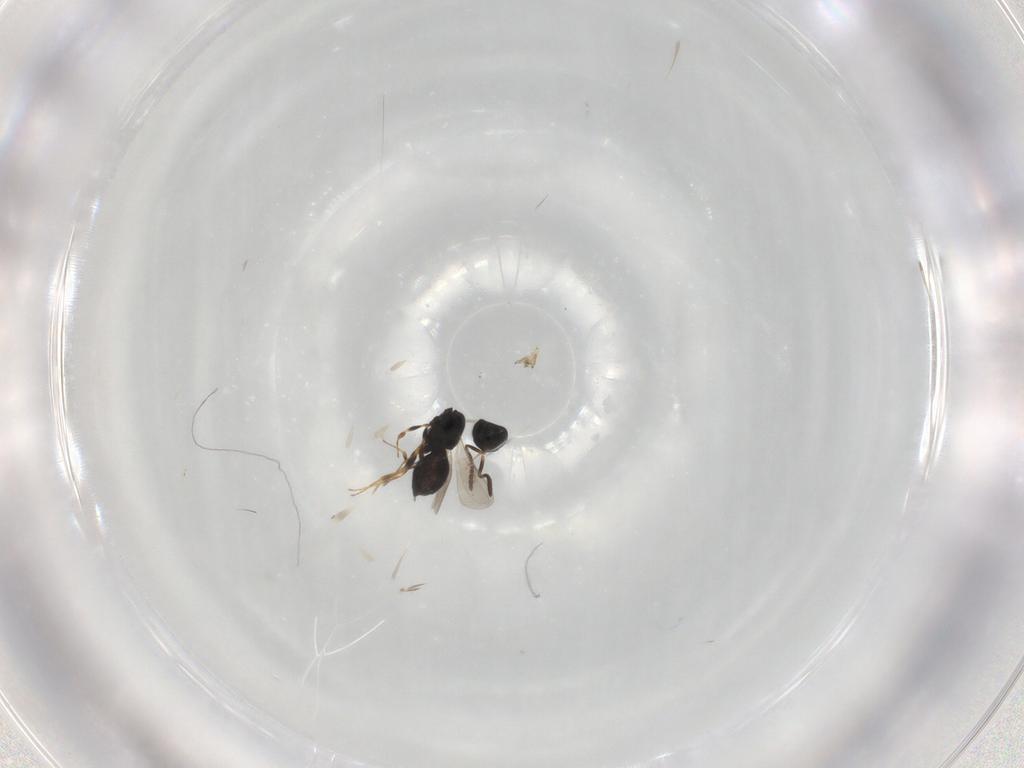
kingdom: Animalia
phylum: Arthropoda
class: Insecta
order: Hymenoptera
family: Scelionidae
